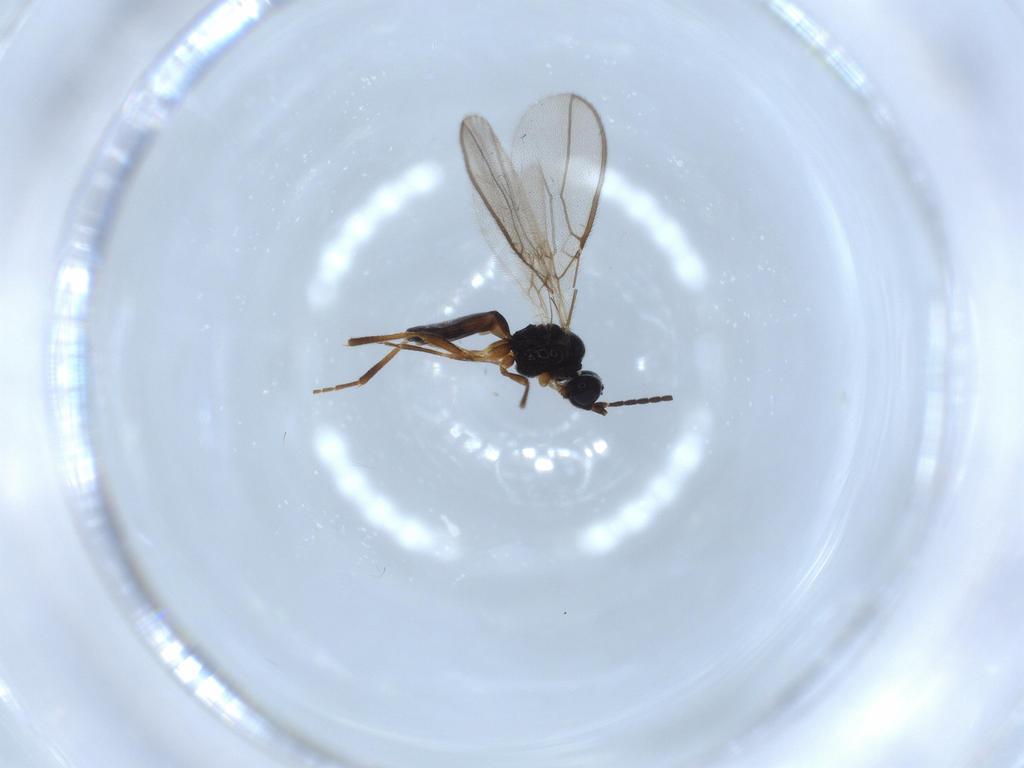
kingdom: Animalia
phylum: Arthropoda
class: Insecta
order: Hymenoptera
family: Braconidae
